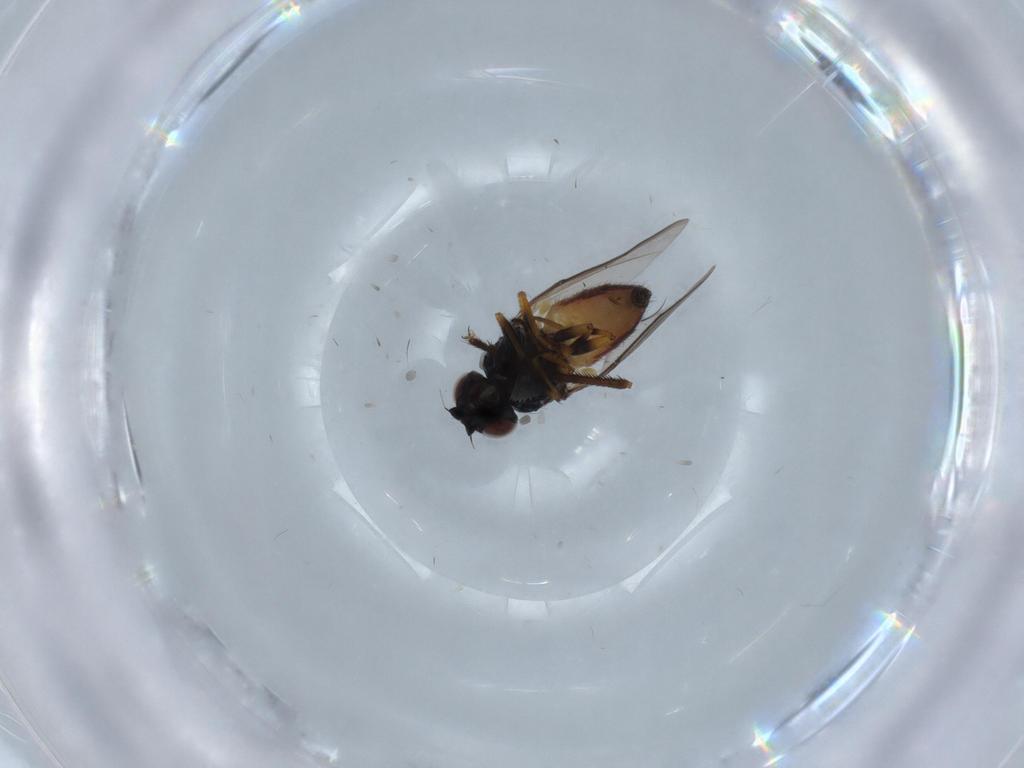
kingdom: Animalia
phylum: Arthropoda
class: Insecta
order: Diptera
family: Chloropidae
